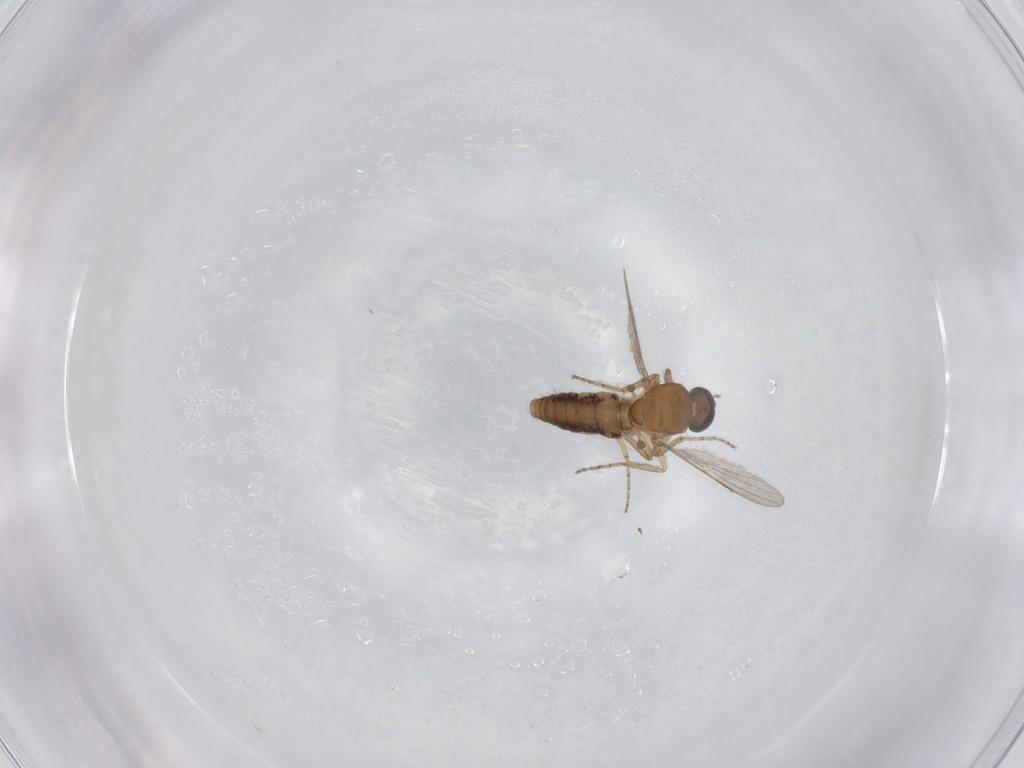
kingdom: Animalia
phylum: Arthropoda
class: Insecta
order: Diptera
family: Ceratopogonidae
